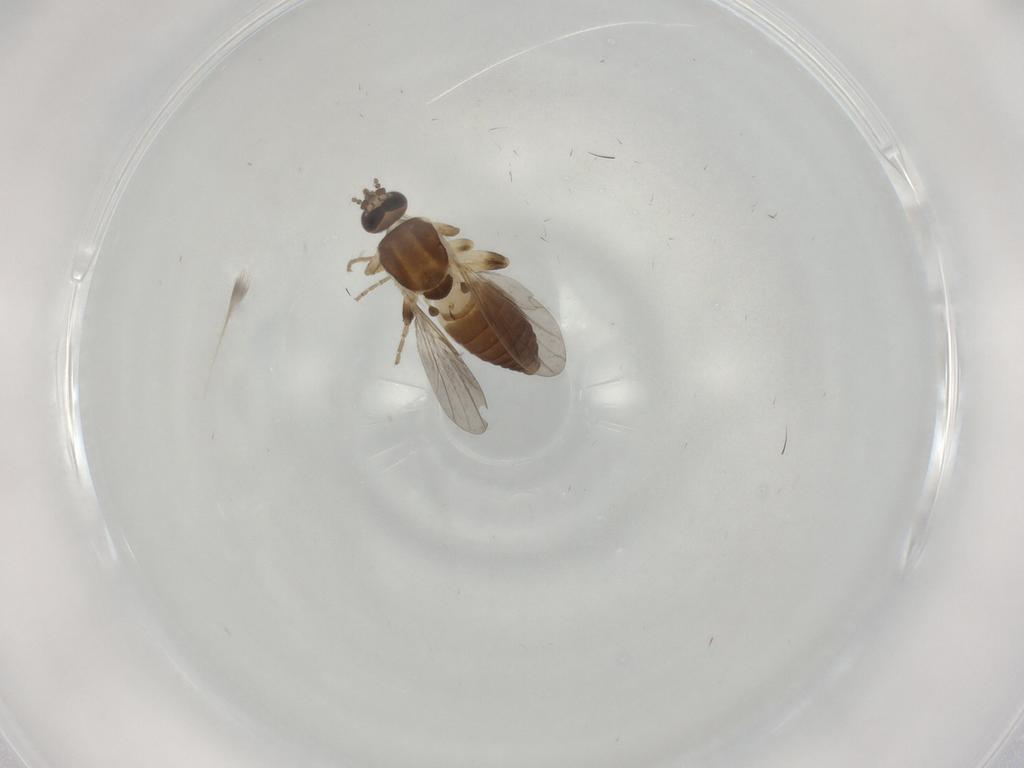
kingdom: Animalia
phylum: Arthropoda
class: Insecta
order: Diptera
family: Ceratopogonidae
